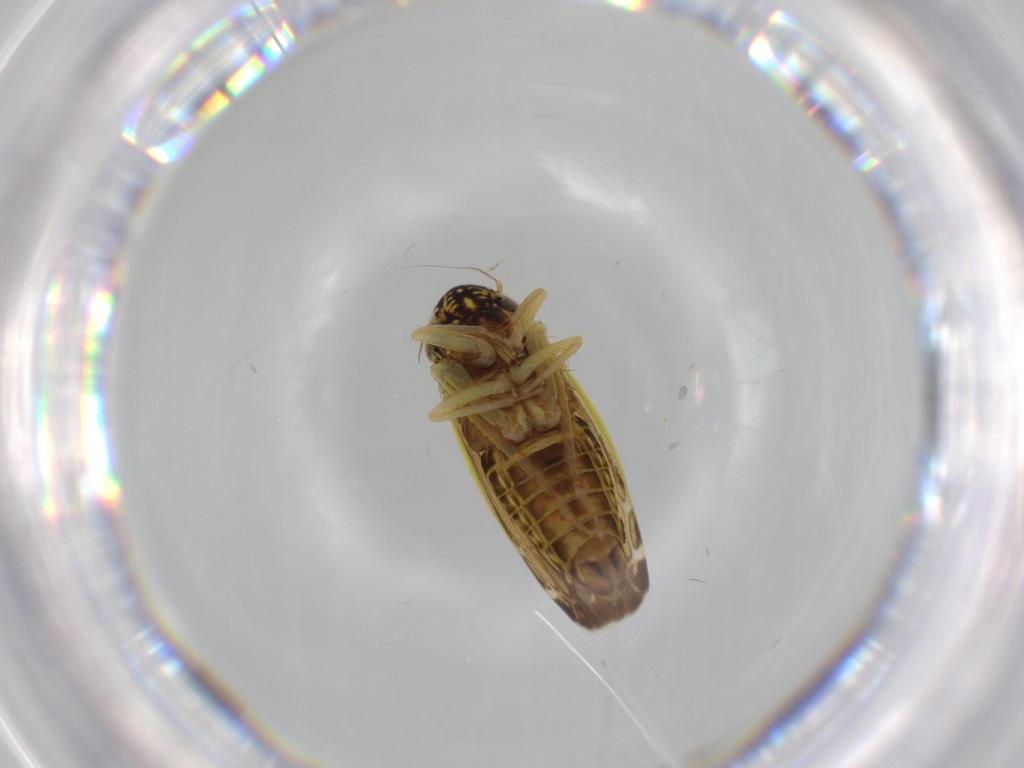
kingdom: Animalia
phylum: Arthropoda
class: Insecta
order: Hemiptera
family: Cicadellidae
